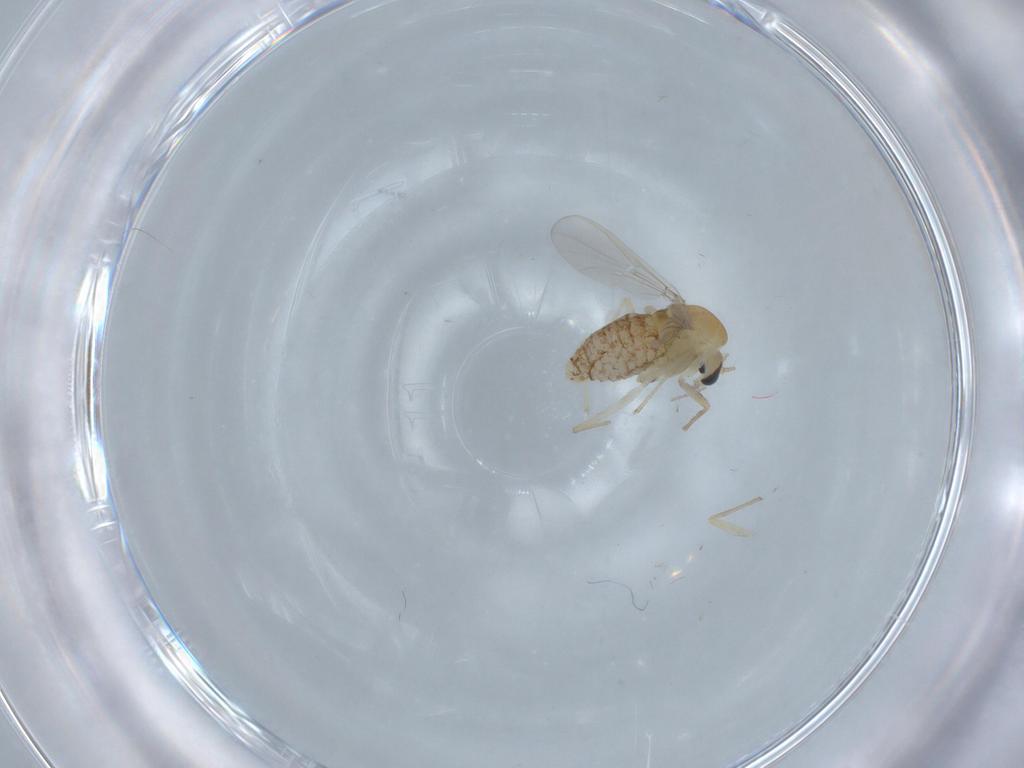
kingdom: Animalia
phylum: Arthropoda
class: Insecta
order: Diptera
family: Chironomidae
